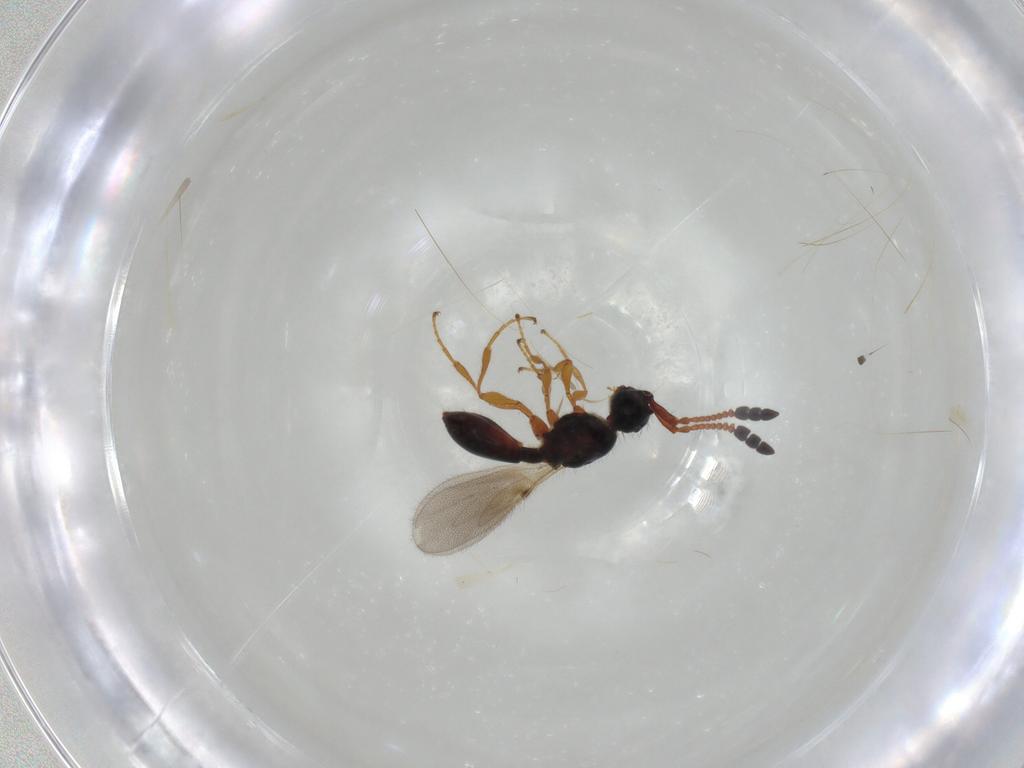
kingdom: Animalia
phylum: Arthropoda
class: Insecta
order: Hymenoptera
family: Diapriidae
